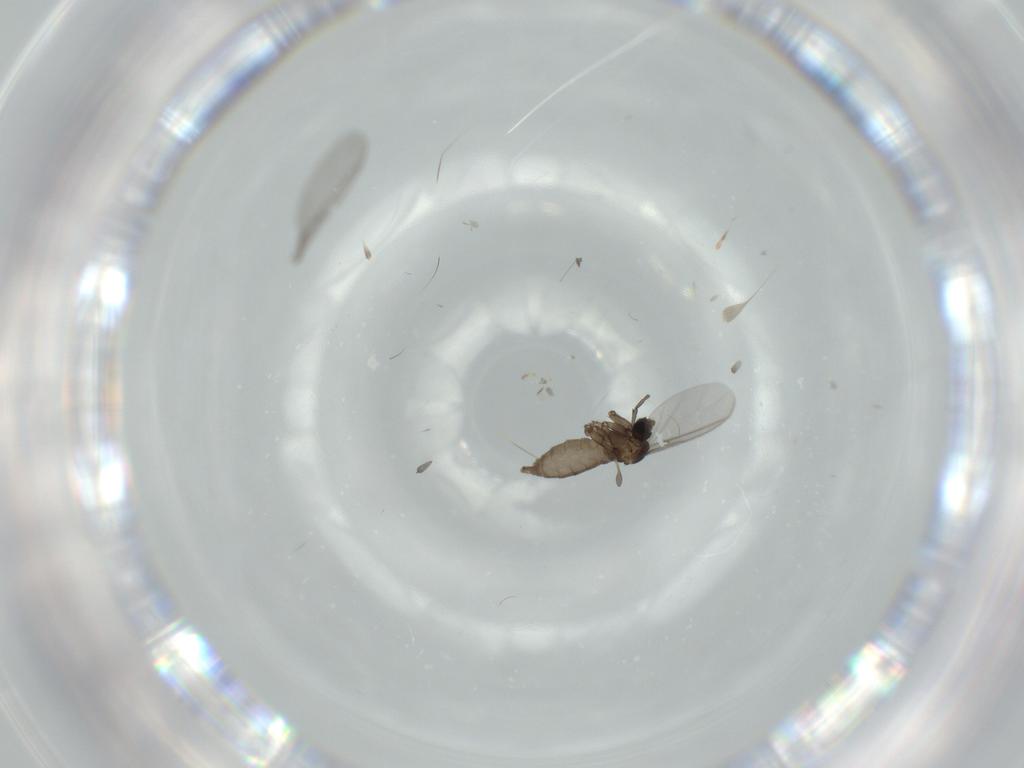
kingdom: Animalia
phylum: Arthropoda
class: Insecta
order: Diptera
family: Sciaridae
